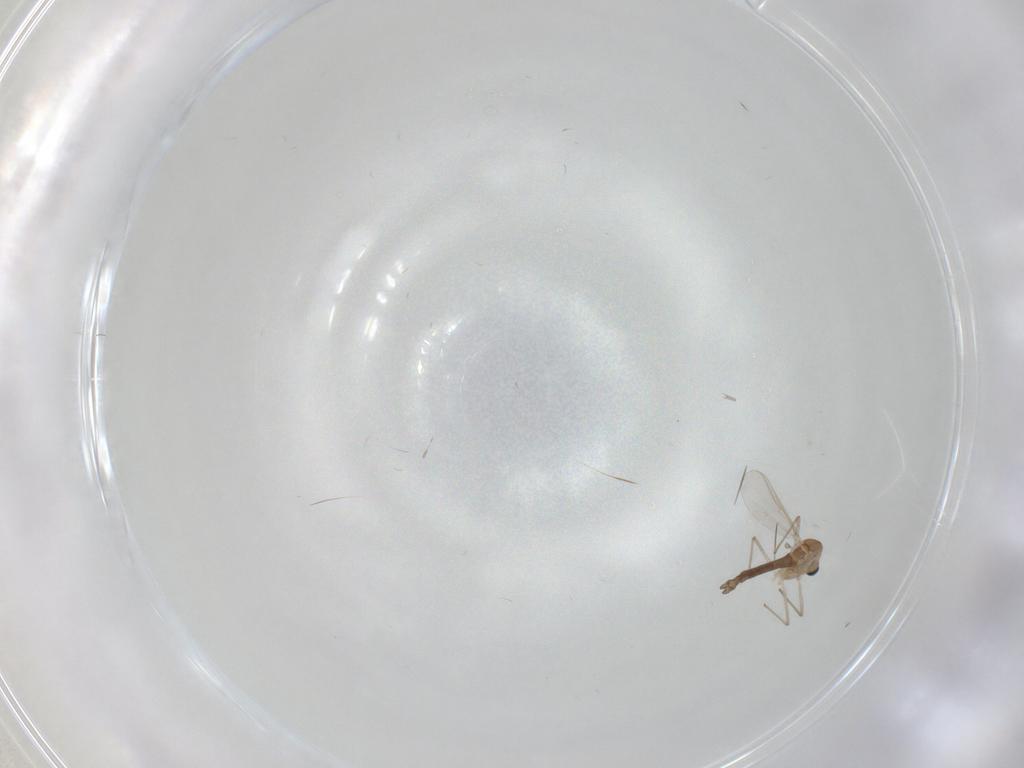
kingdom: Animalia
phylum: Arthropoda
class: Insecta
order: Diptera
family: Chironomidae
